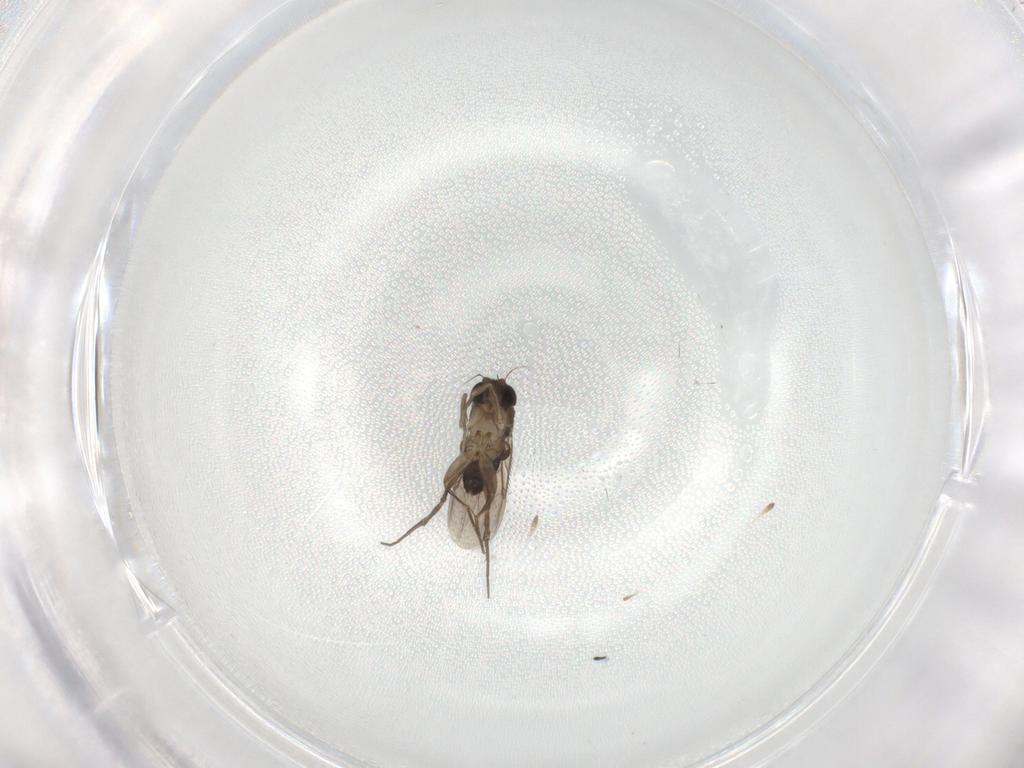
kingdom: Animalia
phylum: Arthropoda
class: Insecta
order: Diptera
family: Phoridae
